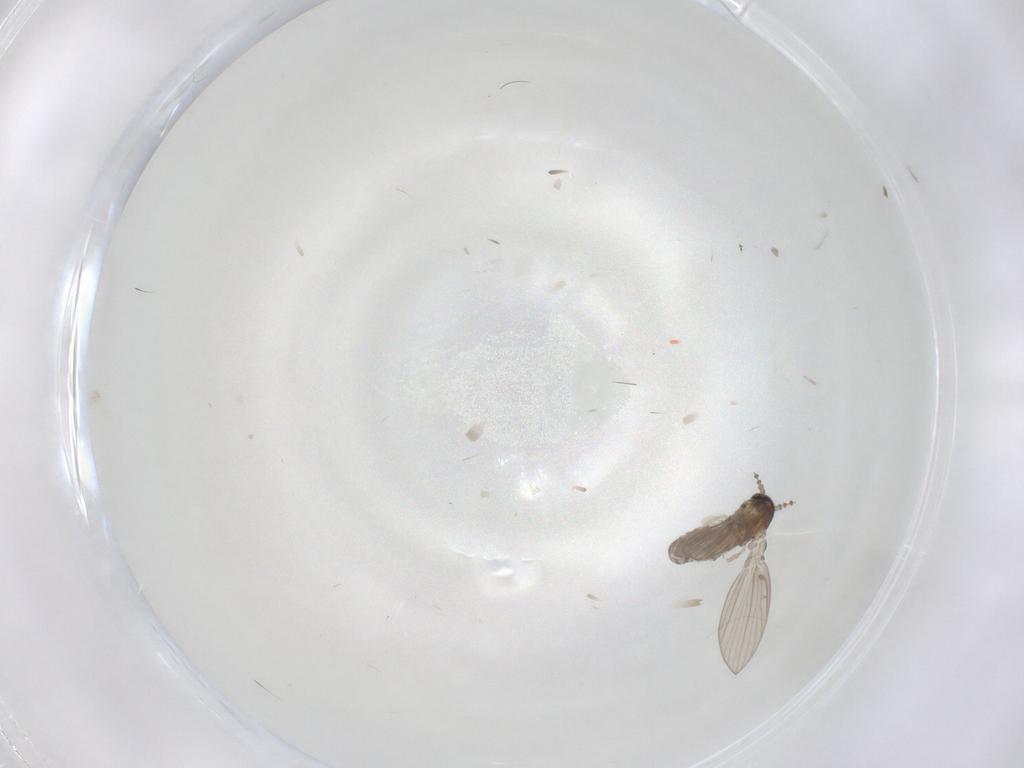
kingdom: Animalia
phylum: Arthropoda
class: Insecta
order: Diptera
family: Psychodidae
